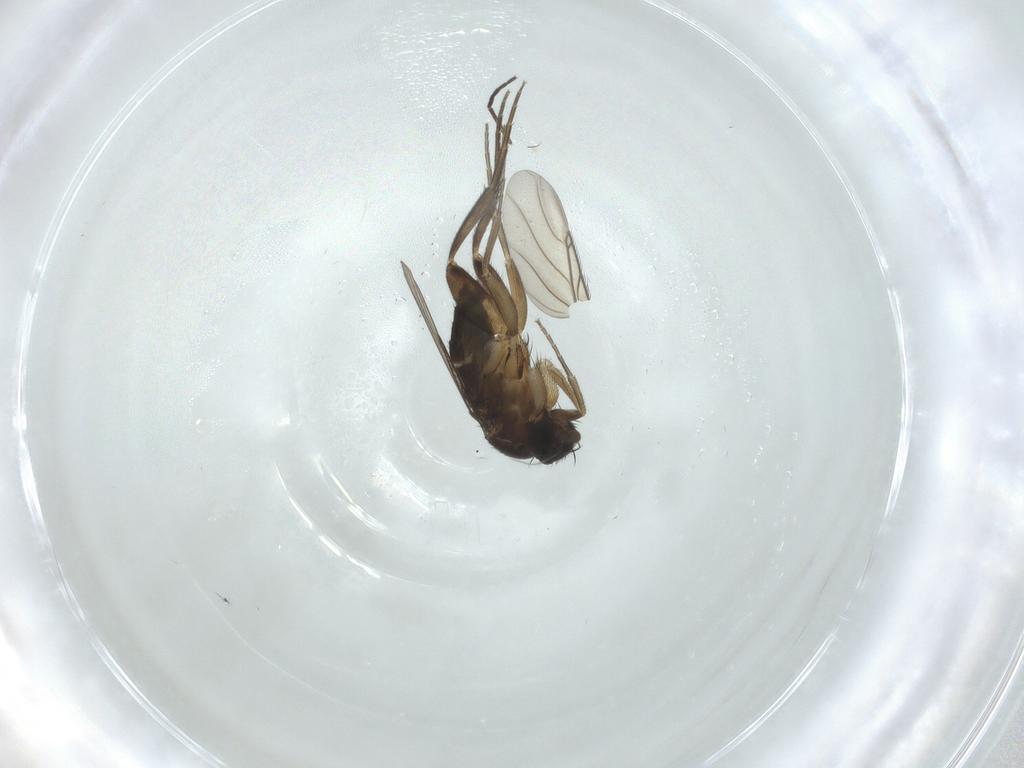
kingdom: Animalia
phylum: Arthropoda
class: Insecta
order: Diptera
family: Phoridae
